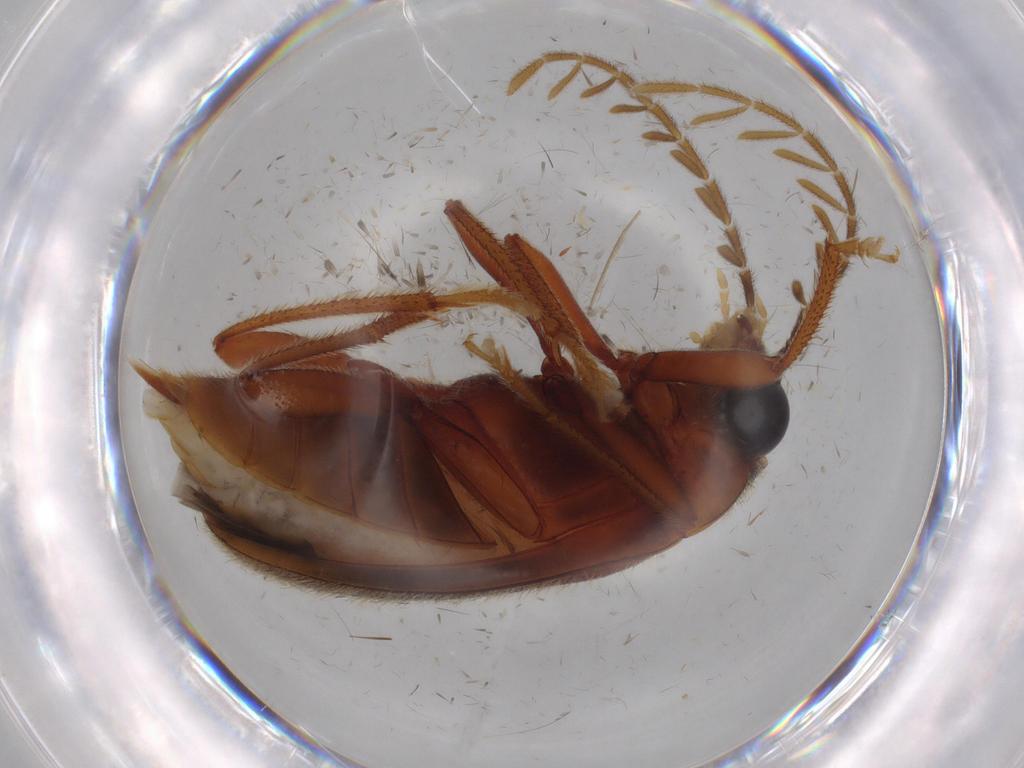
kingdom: Animalia
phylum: Arthropoda
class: Insecta
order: Coleoptera
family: Ptilodactylidae
